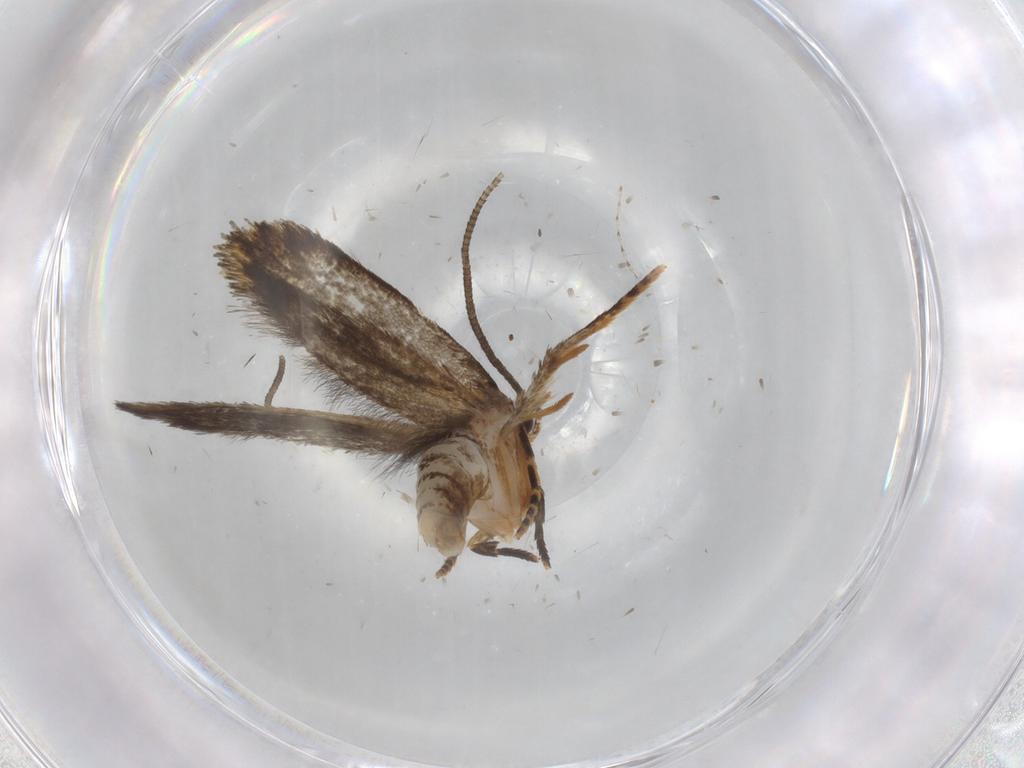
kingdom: Animalia
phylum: Arthropoda
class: Insecta
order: Lepidoptera
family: Tineidae
